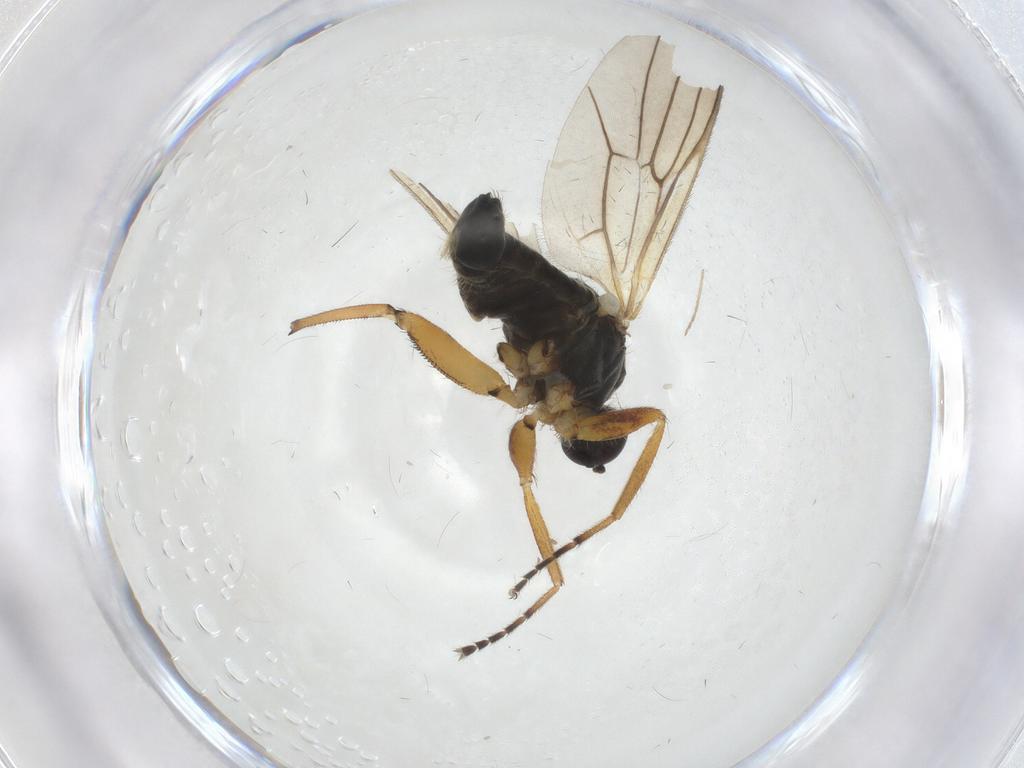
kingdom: Animalia
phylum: Arthropoda
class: Insecta
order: Diptera
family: Hybotidae
